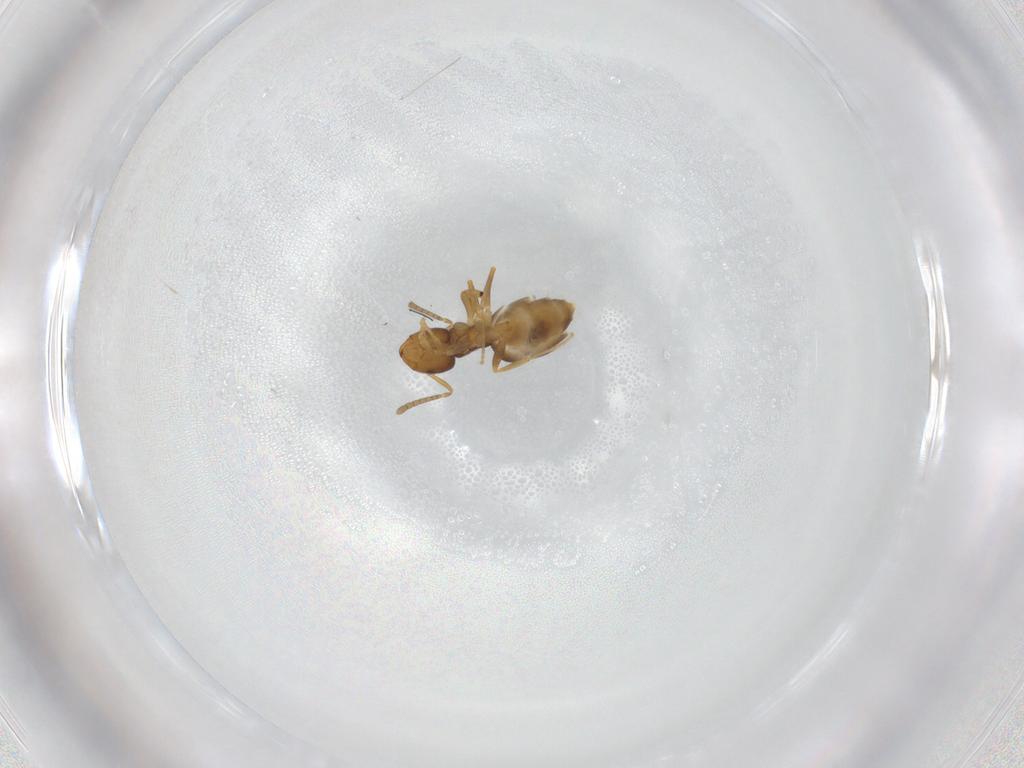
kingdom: Animalia
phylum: Arthropoda
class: Insecta
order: Hymenoptera
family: Formicidae
